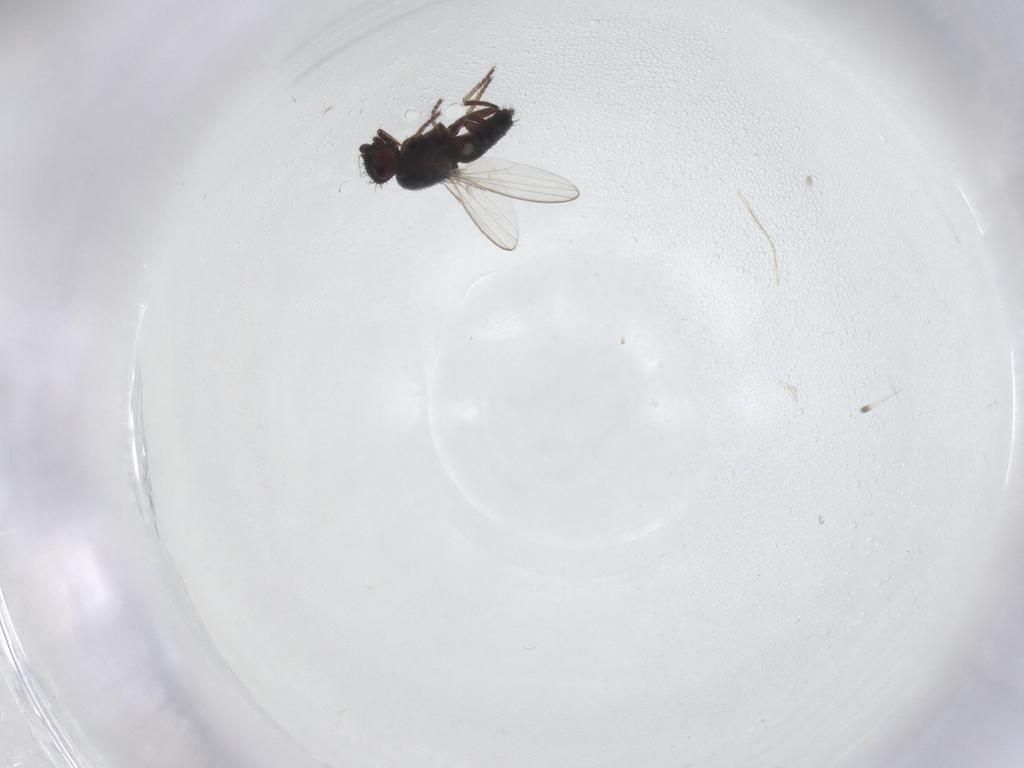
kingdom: Animalia
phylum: Arthropoda
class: Insecta
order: Diptera
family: Milichiidae
